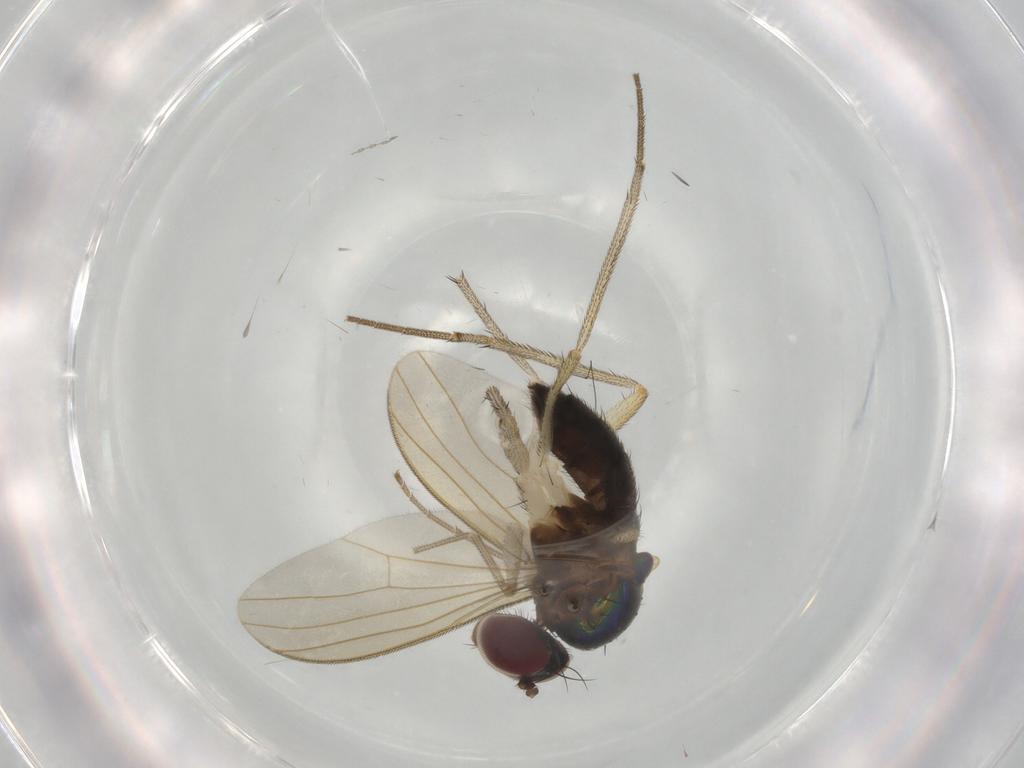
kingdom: Animalia
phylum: Arthropoda
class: Insecta
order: Diptera
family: Dolichopodidae
